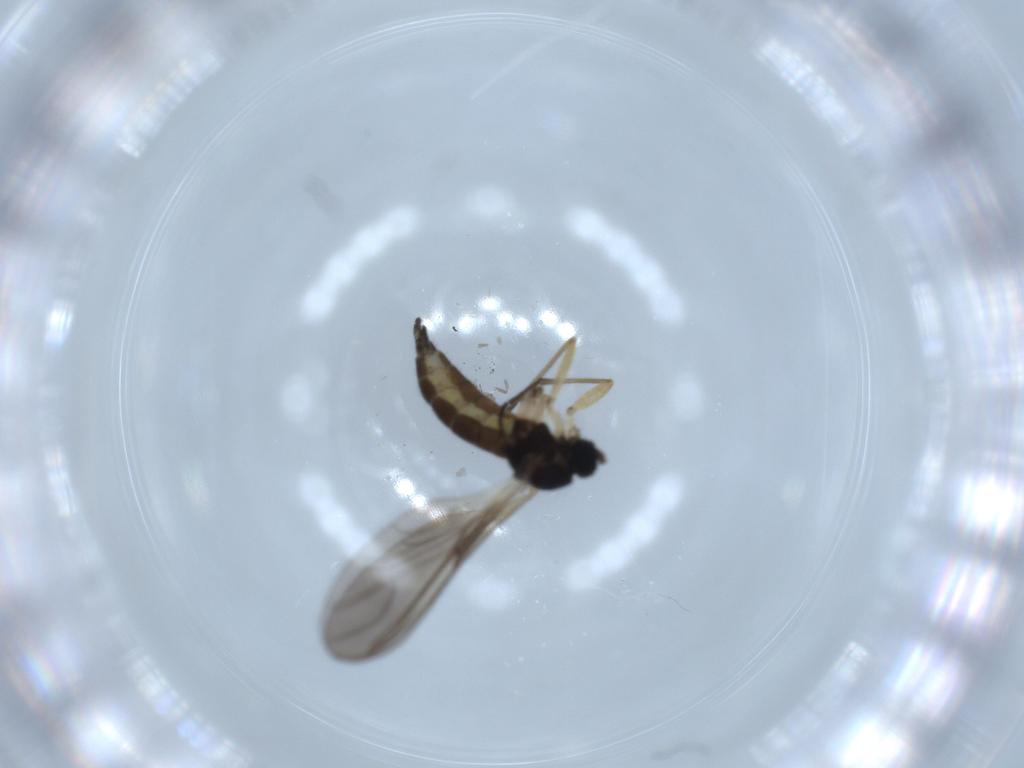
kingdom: Animalia
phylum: Arthropoda
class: Insecta
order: Diptera
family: Sciaridae
